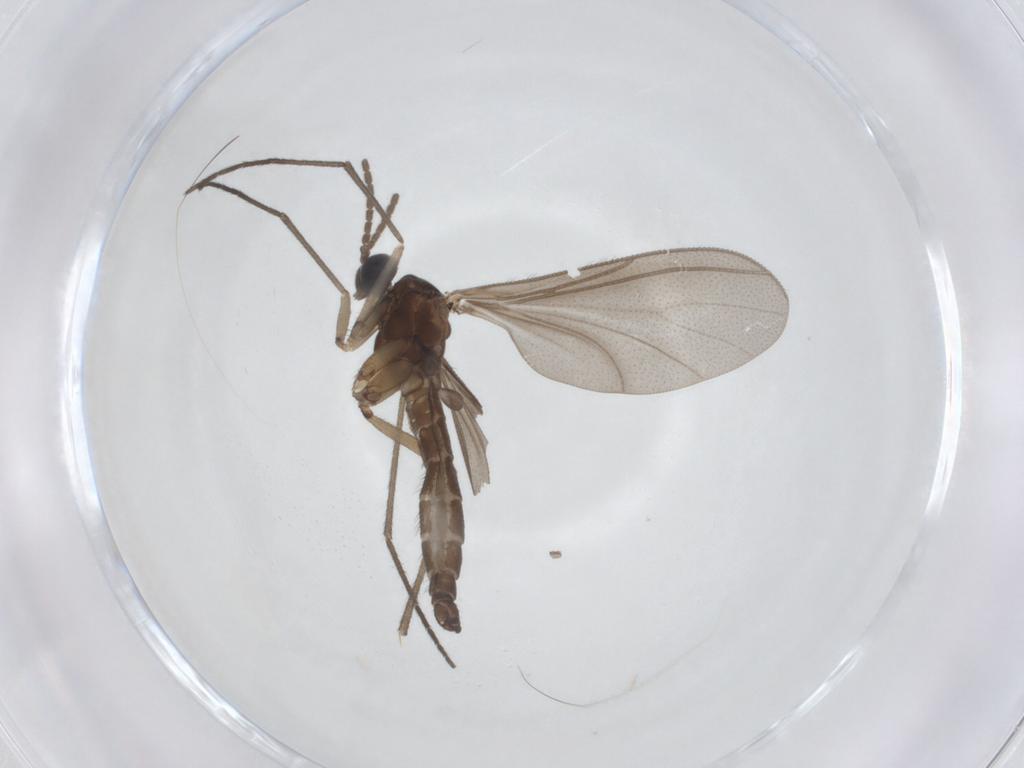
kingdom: Animalia
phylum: Arthropoda
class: Insecta
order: Diptera
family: Sciaridae
